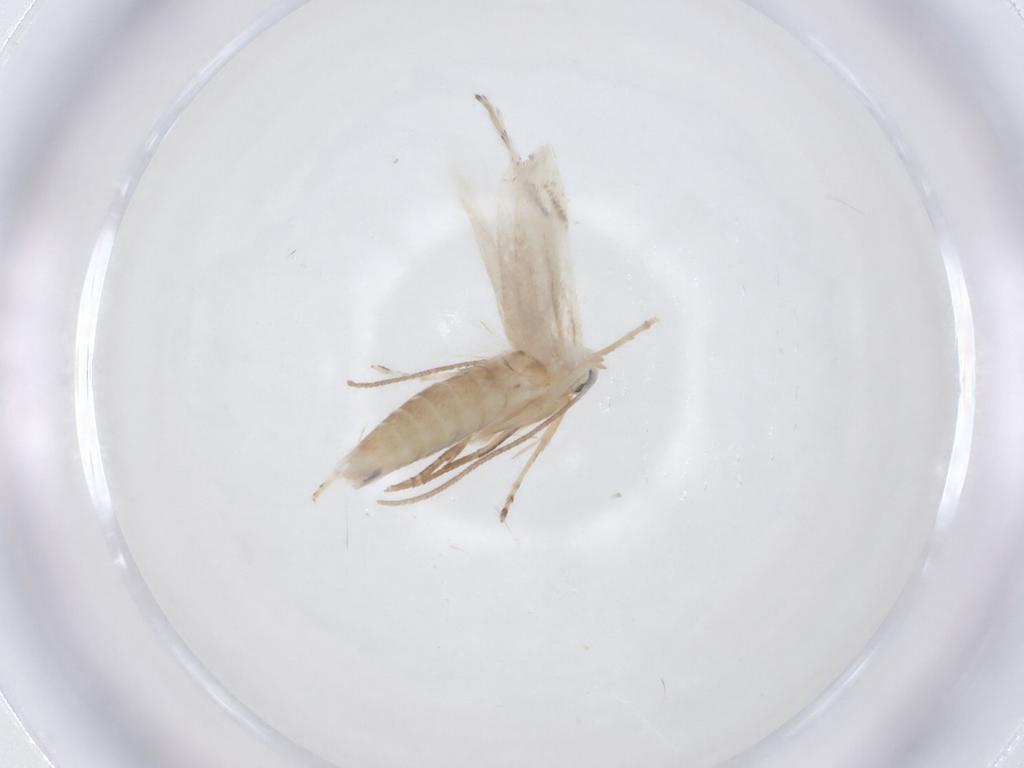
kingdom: Animalia
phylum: Arthropoda
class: Insecta
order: Lepidoptera
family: Lyonetiidae
